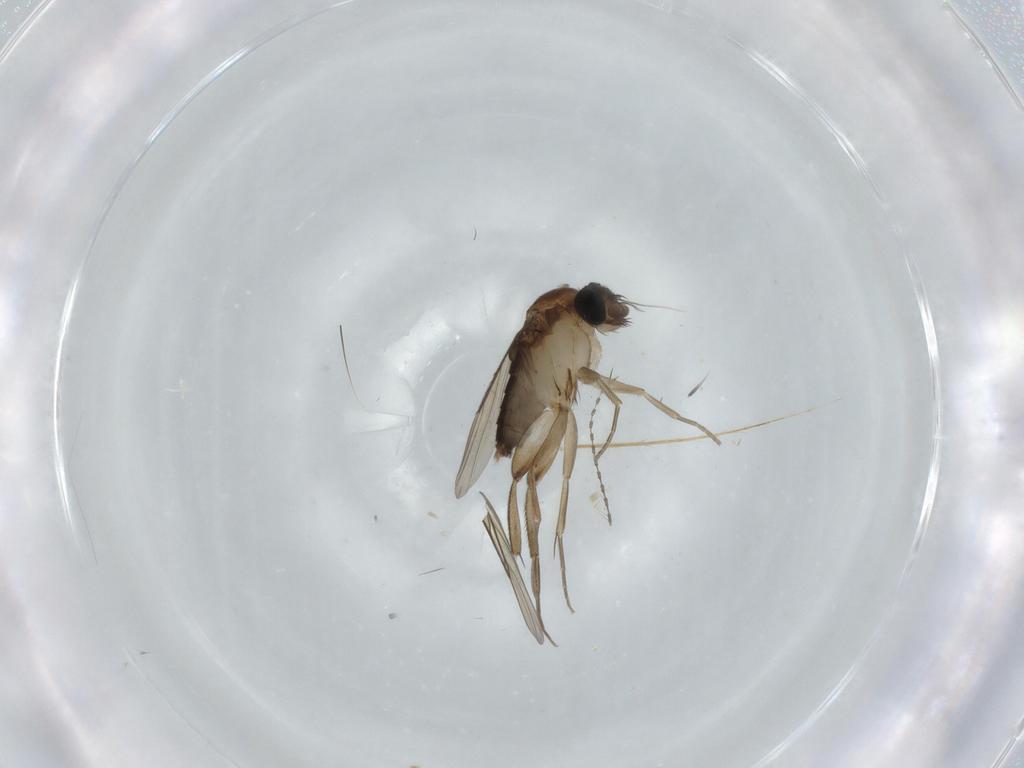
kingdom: Animalia
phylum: Arthropoda
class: Insecta
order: Diptera
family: Phoridae
